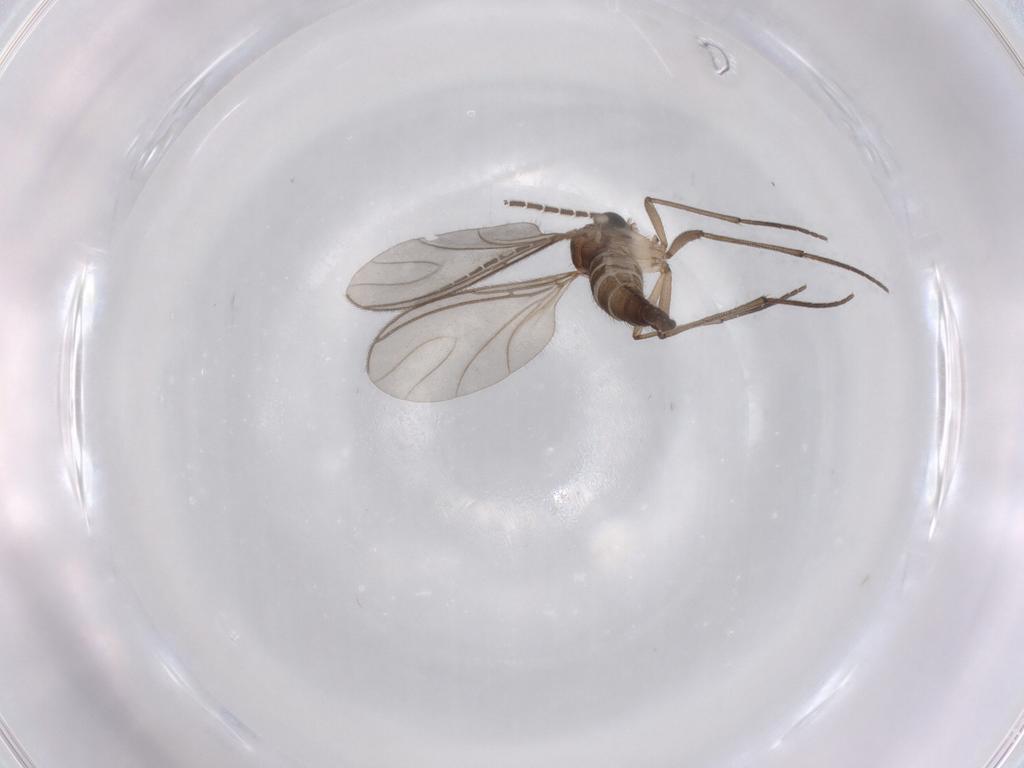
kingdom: Animalia
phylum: Arthropoda
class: Insecta
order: Diptera
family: Sciaridae
